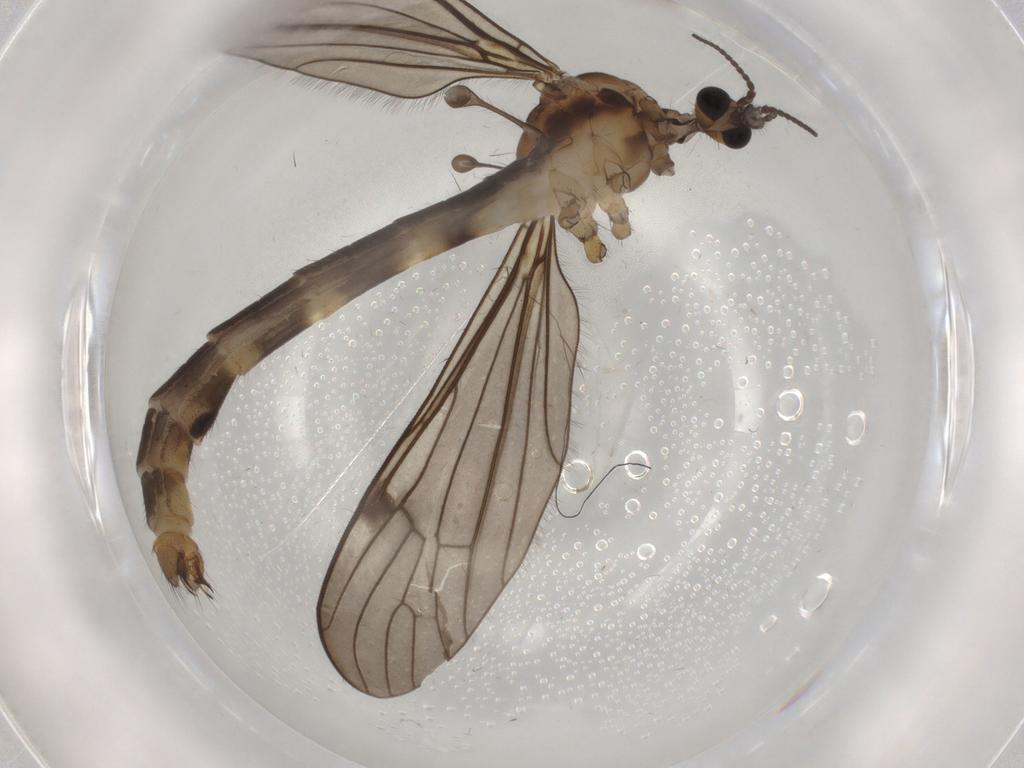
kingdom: Animalia
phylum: Arthropoda
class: Insecta
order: Diptera
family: Limoniidae
